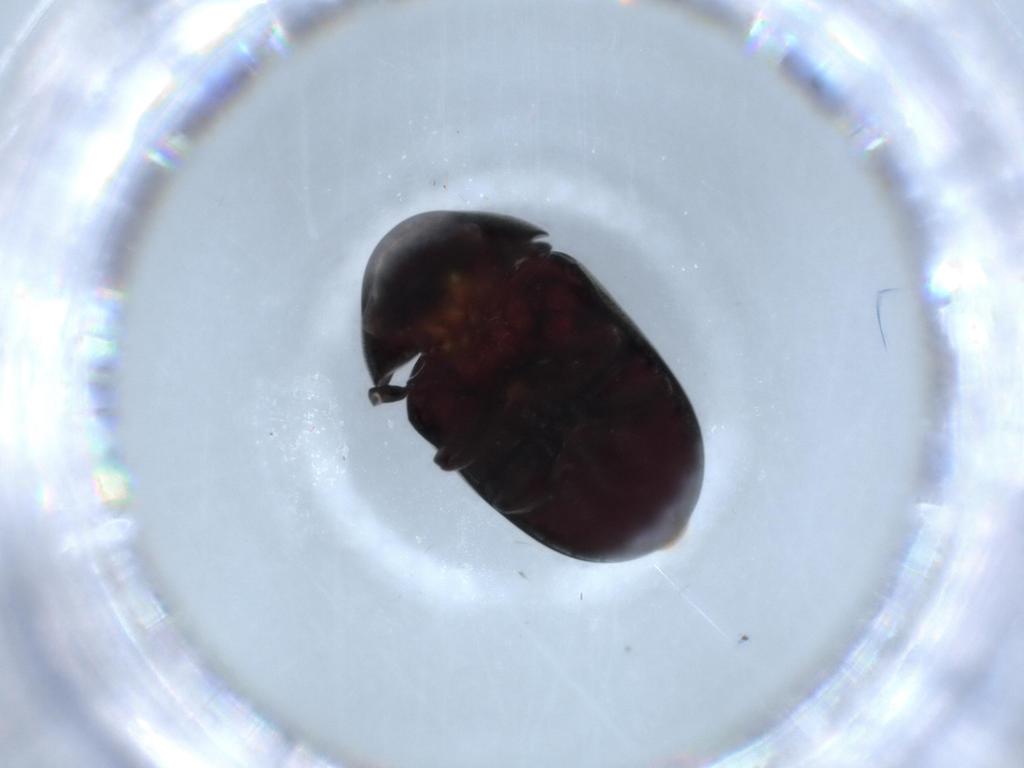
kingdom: Animalia
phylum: Arthropoda
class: Insecta
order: Coleoptera
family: Ptinidae
